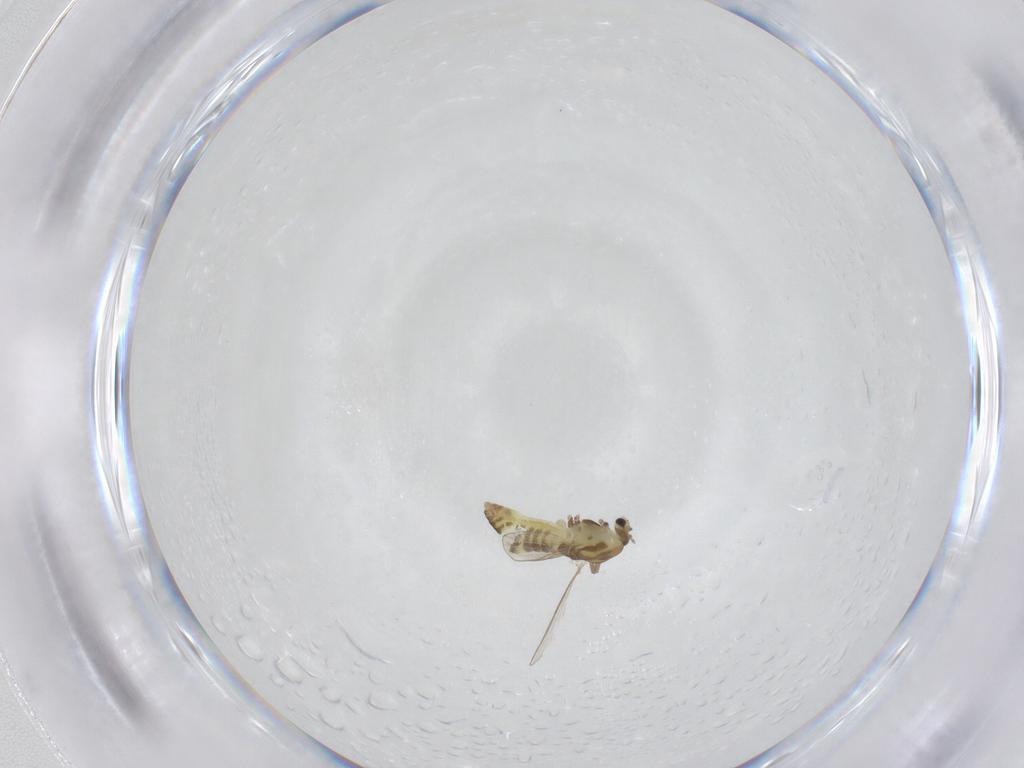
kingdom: Animalia
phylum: Arthropoda
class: Insecta
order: Diptera
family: Chironomidae
